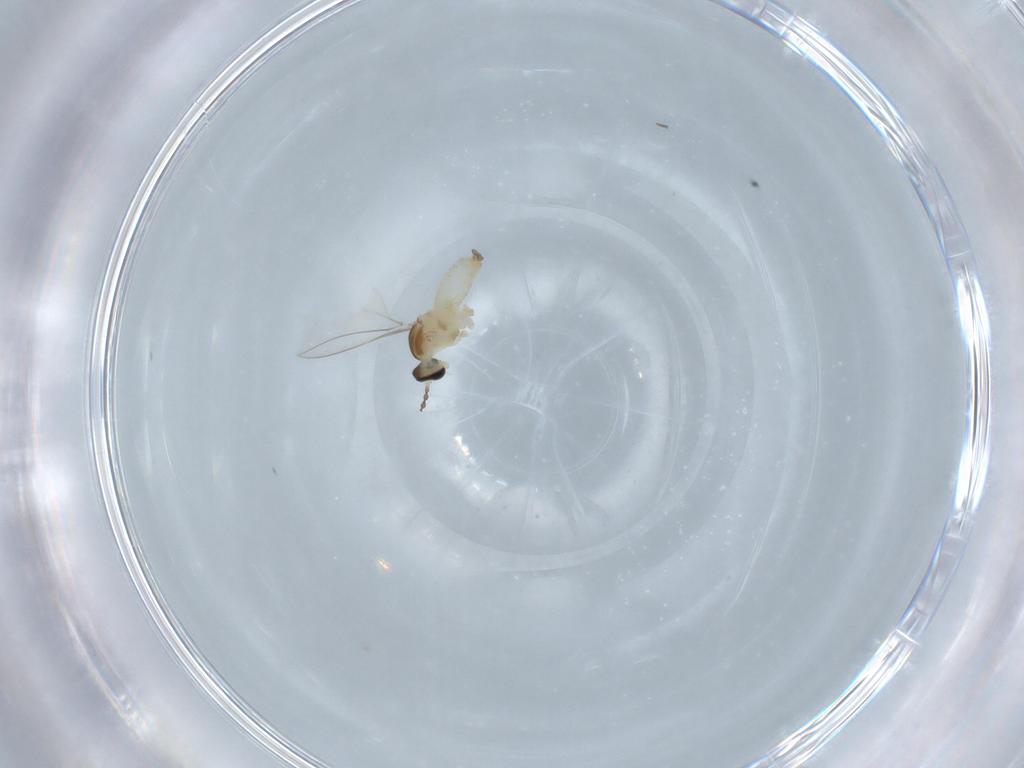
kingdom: Animalia
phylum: Arthropoda
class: Insecta
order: Diptera
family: Cecidomyiidae
